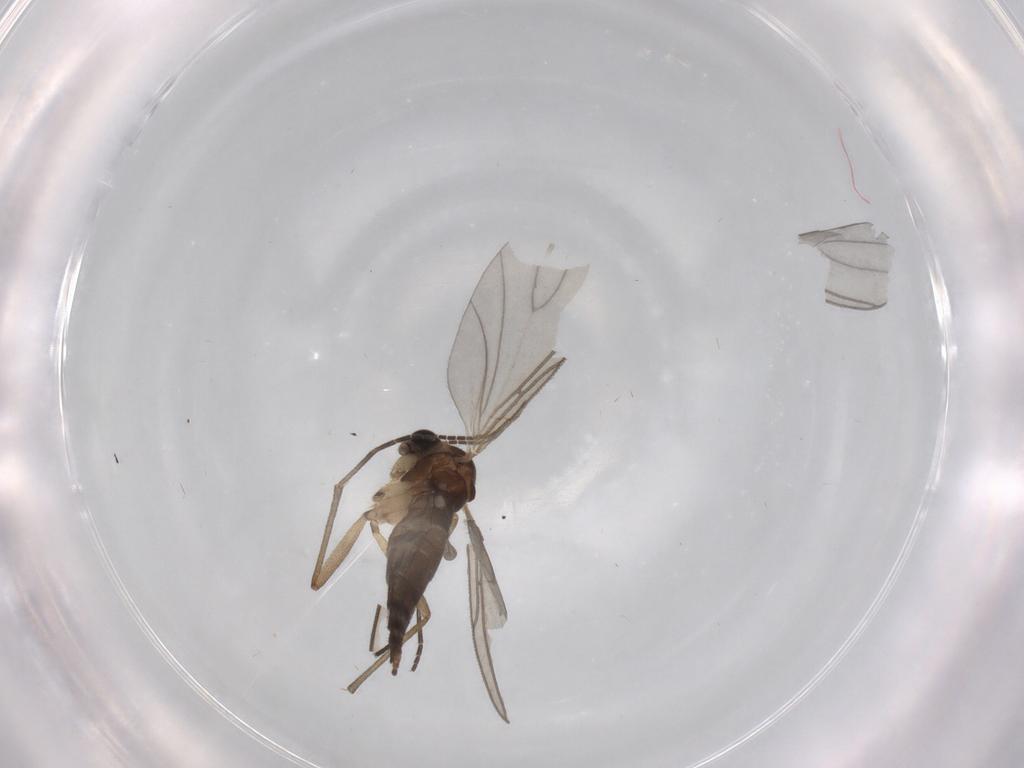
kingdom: Animalia
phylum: Arthropoda
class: Insecta
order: Diptera
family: Sciaridae
